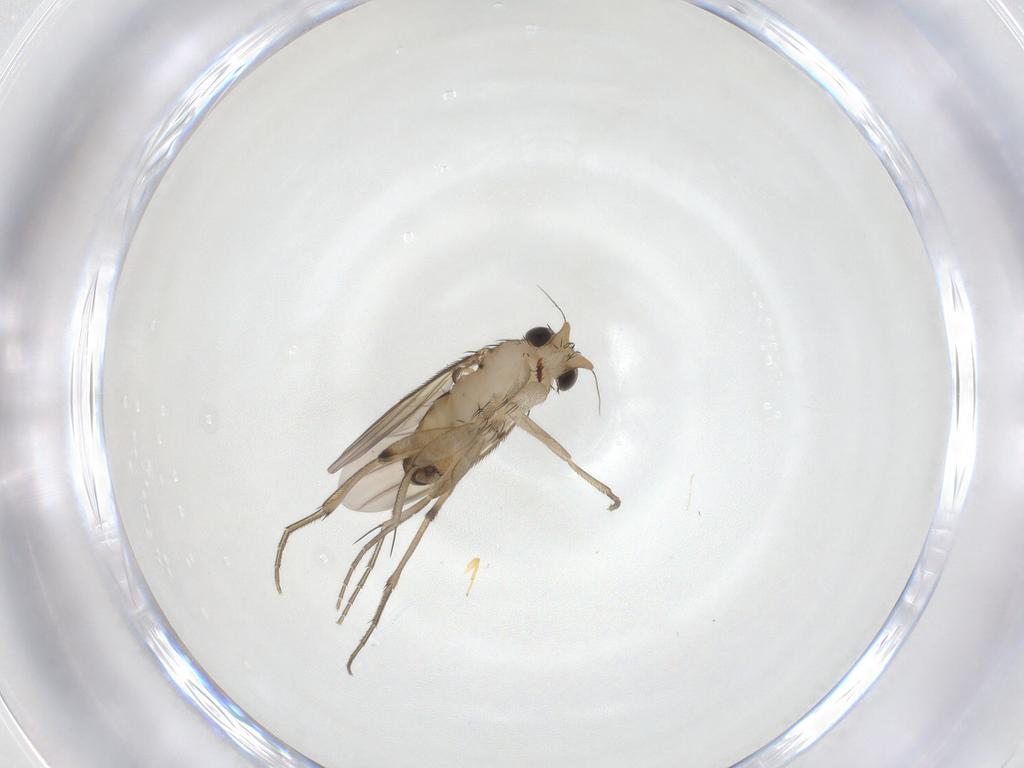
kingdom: Animalia
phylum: Arthropoda
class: Insecta
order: Diptera
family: Phoridae
